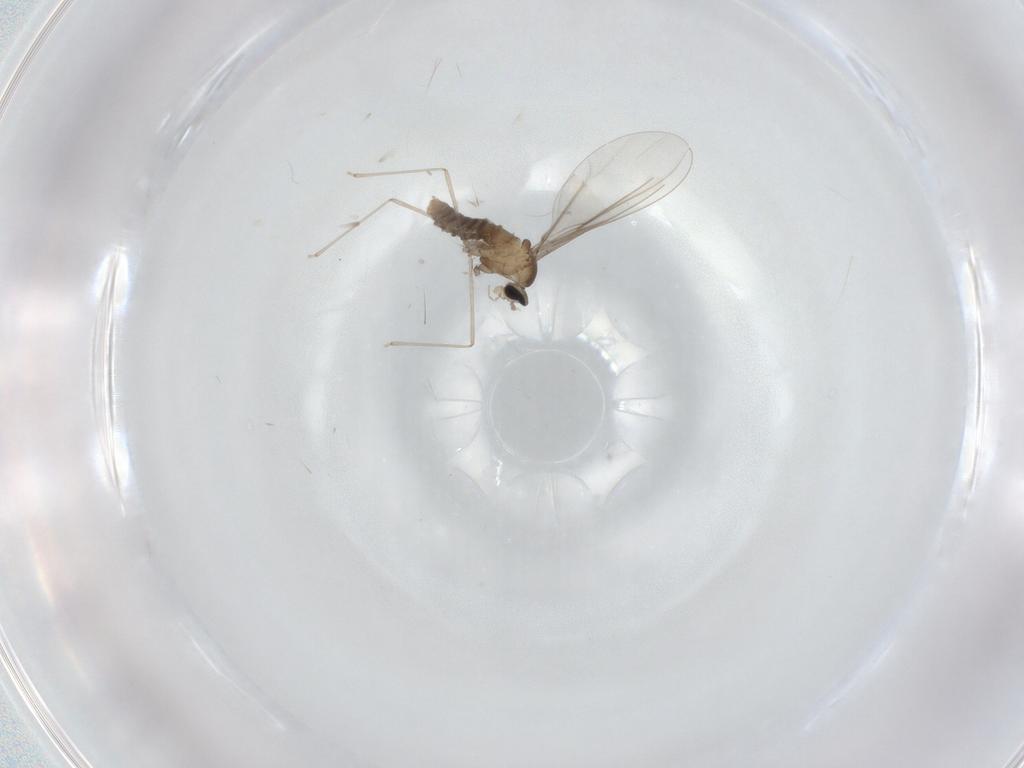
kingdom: Animalia
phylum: Arthropoda
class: Insecta
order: Diptera
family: Cecidomyiidae
